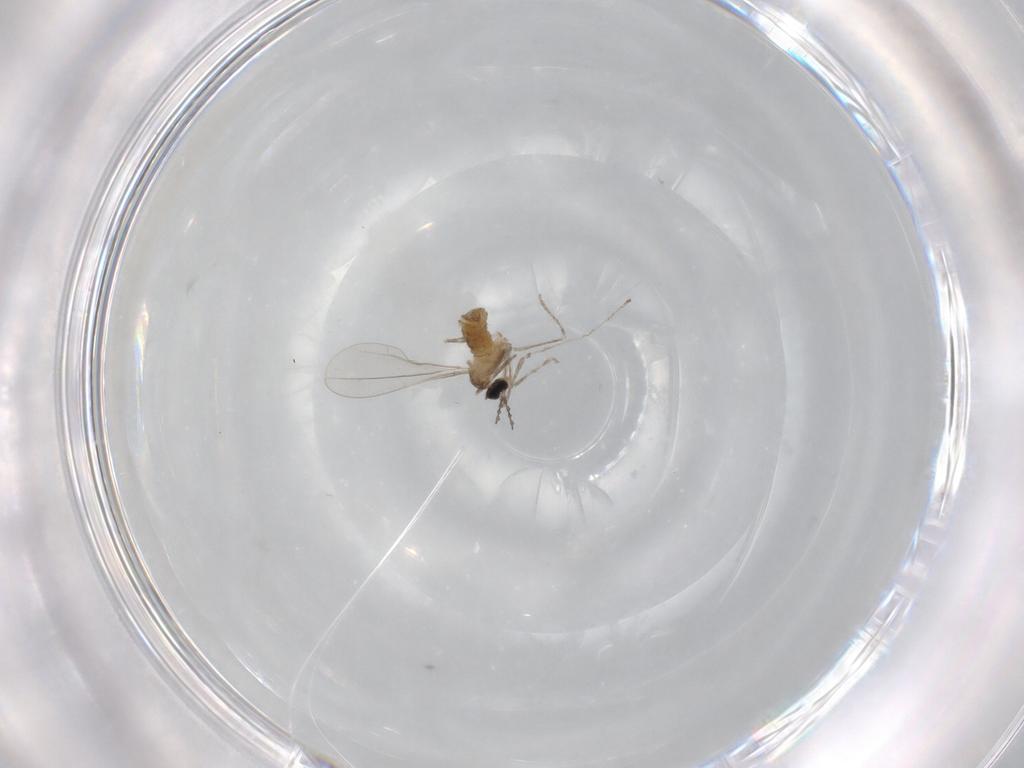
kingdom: Animalia
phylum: Arthropoda
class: Insecta
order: Diptera
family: Cecidomyiidae
